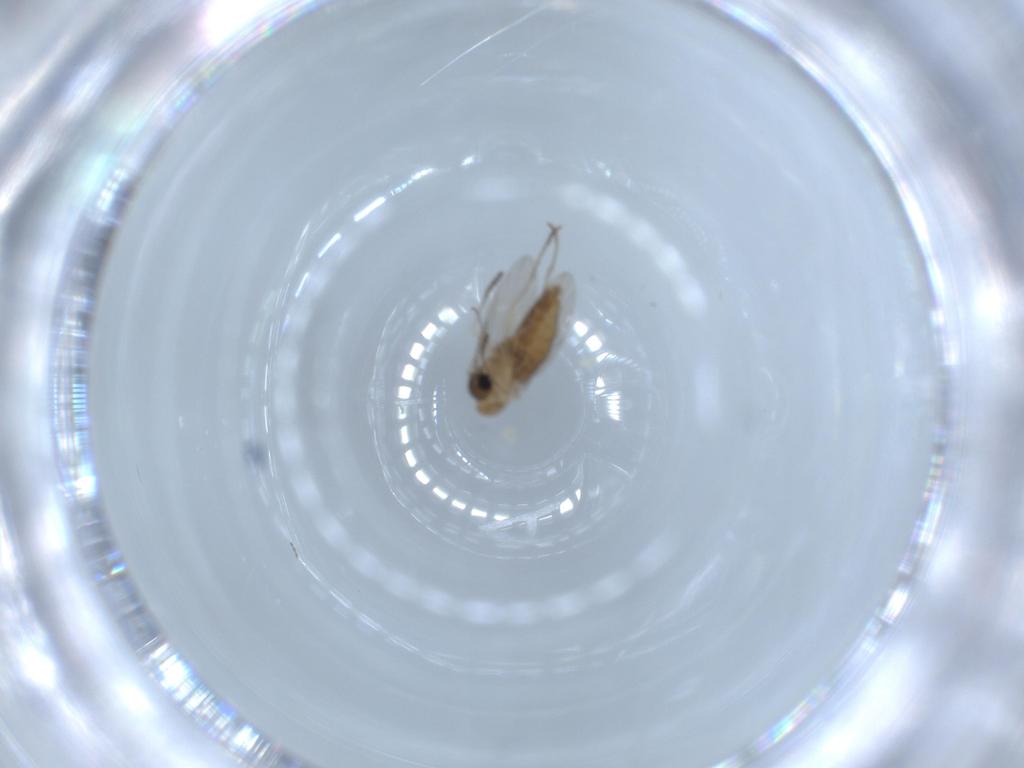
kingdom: Animalia
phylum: Arthropoda
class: Insecta
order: Diptera
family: Psychodidae
